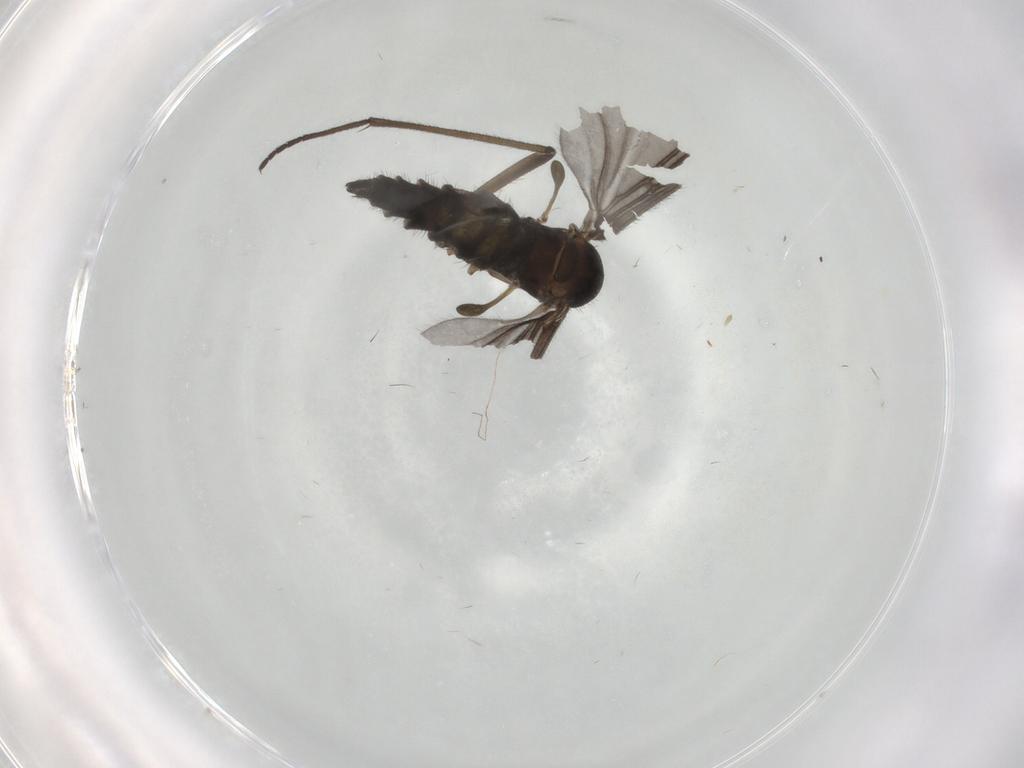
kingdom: Animalia
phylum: Arthropoda
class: Insecta
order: Diptera
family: Sciaridae
